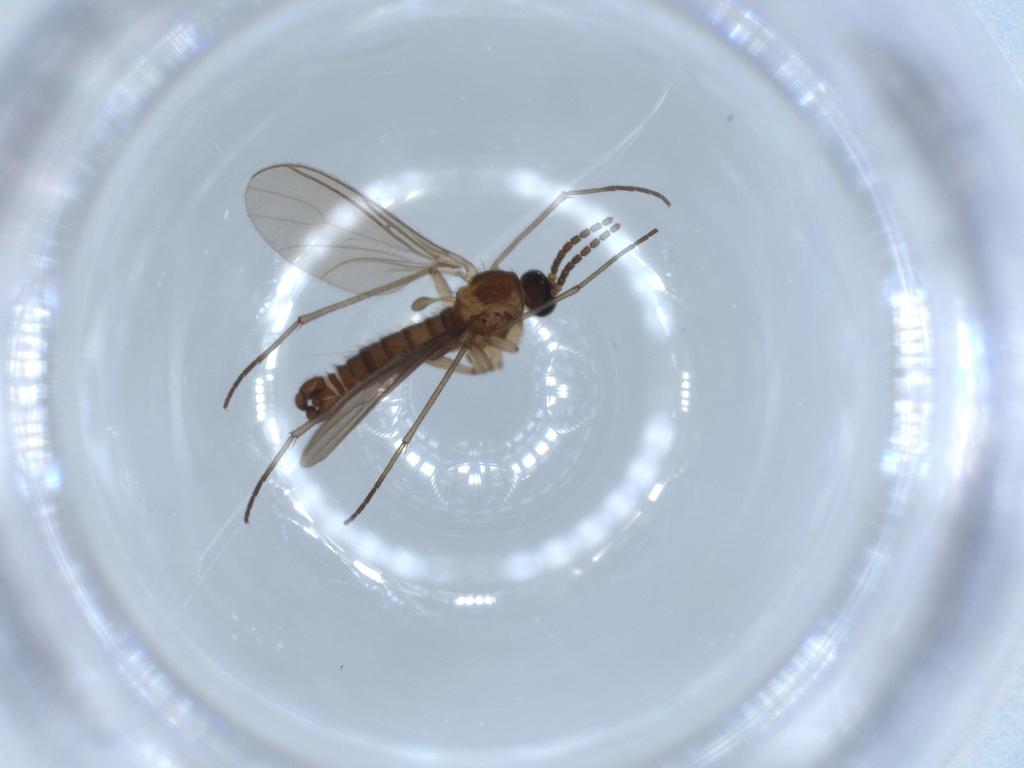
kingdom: Animalia
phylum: Arthropoda
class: Insecta
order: Diptera
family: Sciaridae
